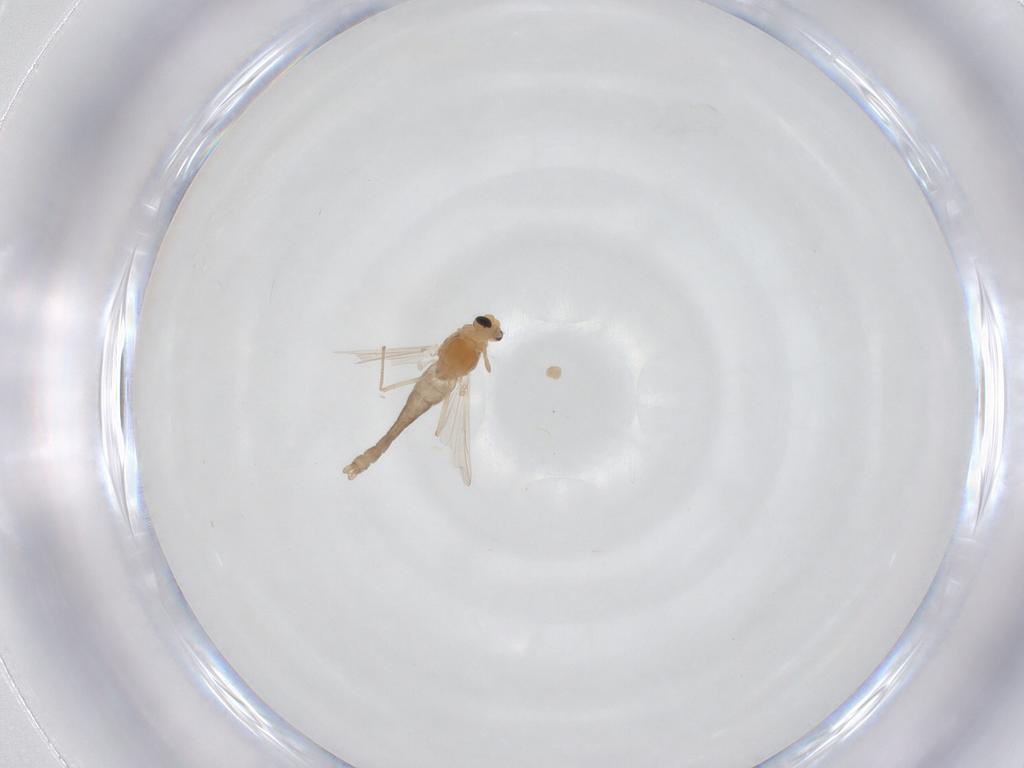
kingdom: Animalia
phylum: Arthropoda
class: Insecta
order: Diptera
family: Chironomidae
